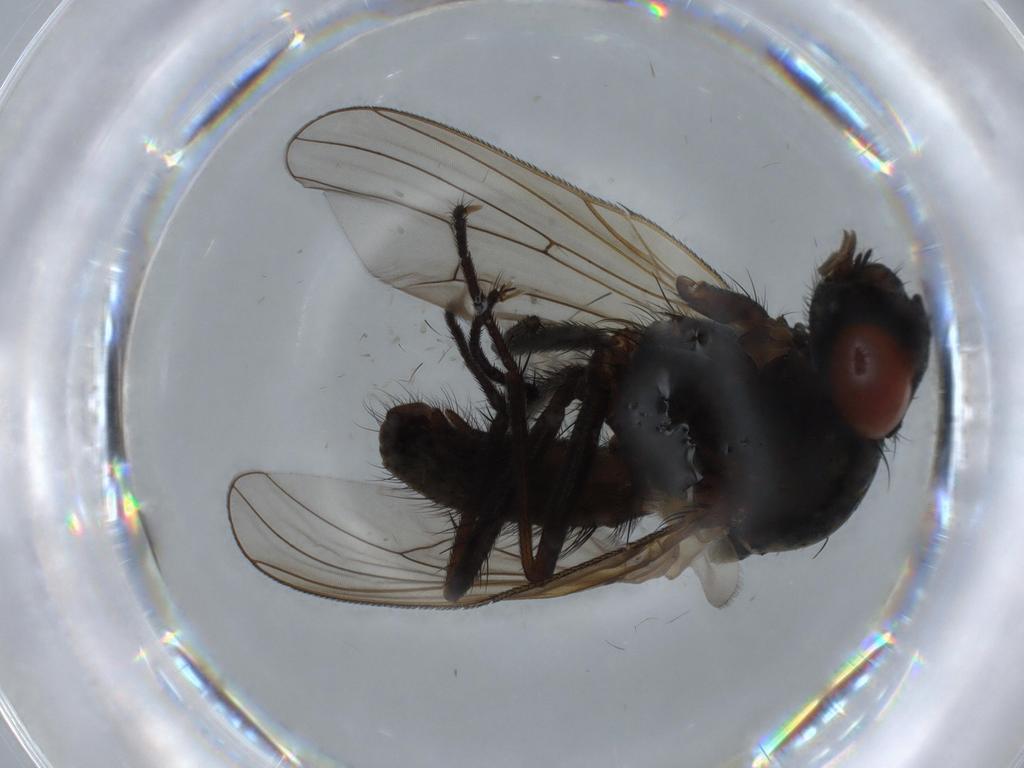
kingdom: Animalia
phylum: Arthropoda
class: Insecta
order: Diptera
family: Anthomyiidae
